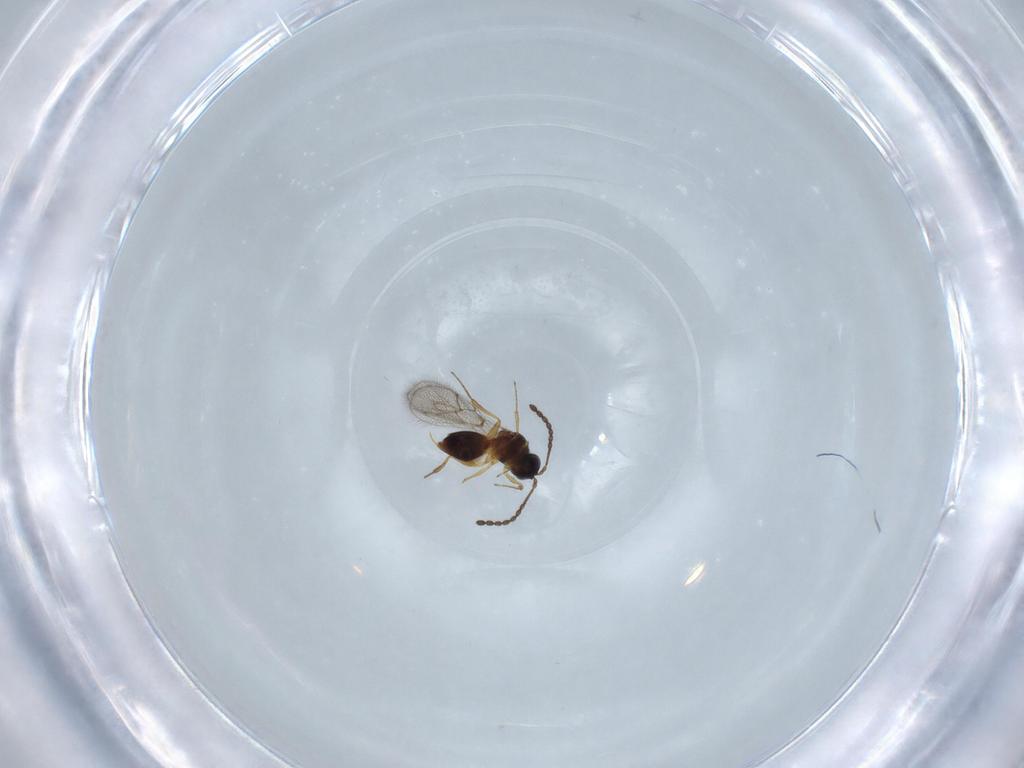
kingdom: Animalia
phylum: Arthropoda
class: Insecta
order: Hymenoptera
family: Figitidae
